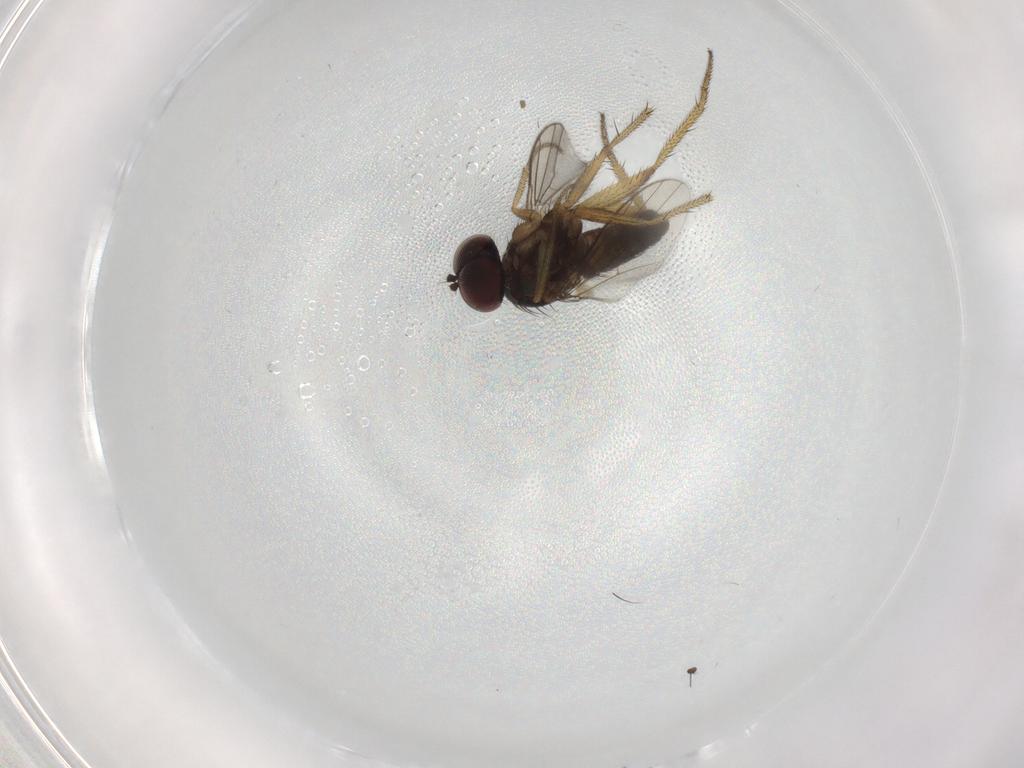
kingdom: Animalia
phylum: Arthropoda
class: Insecta
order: Diptera
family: Dolichopodidae
